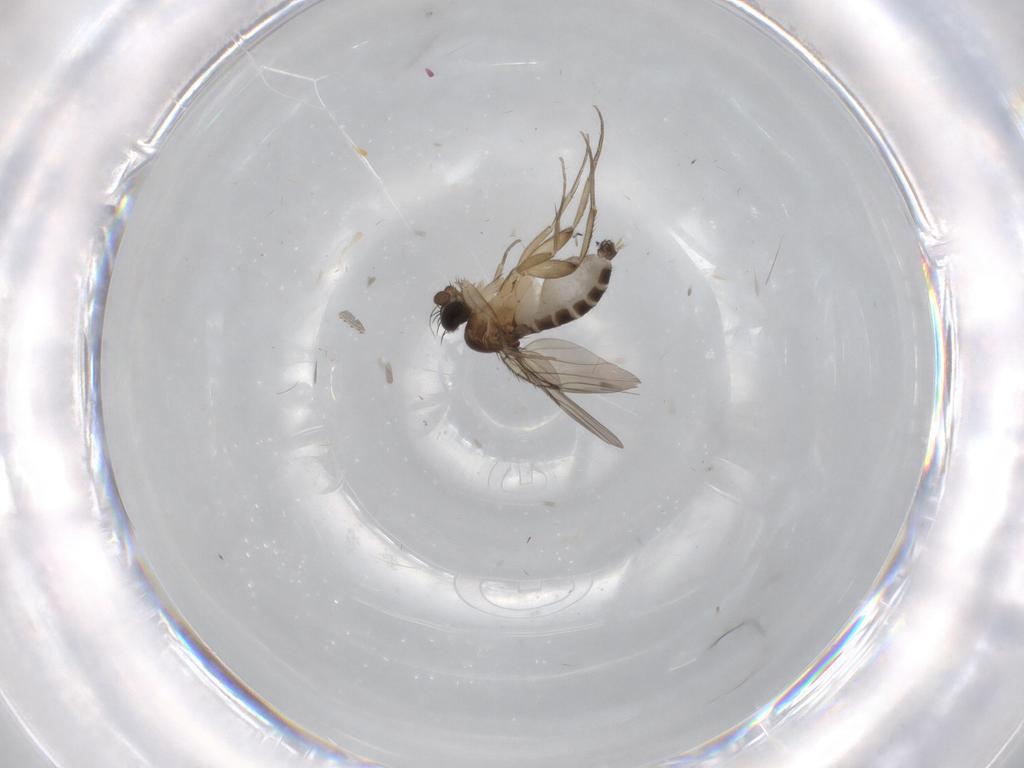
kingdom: Animalia
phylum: Arthropoda
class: Insecta
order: Diptera
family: Phoridae
